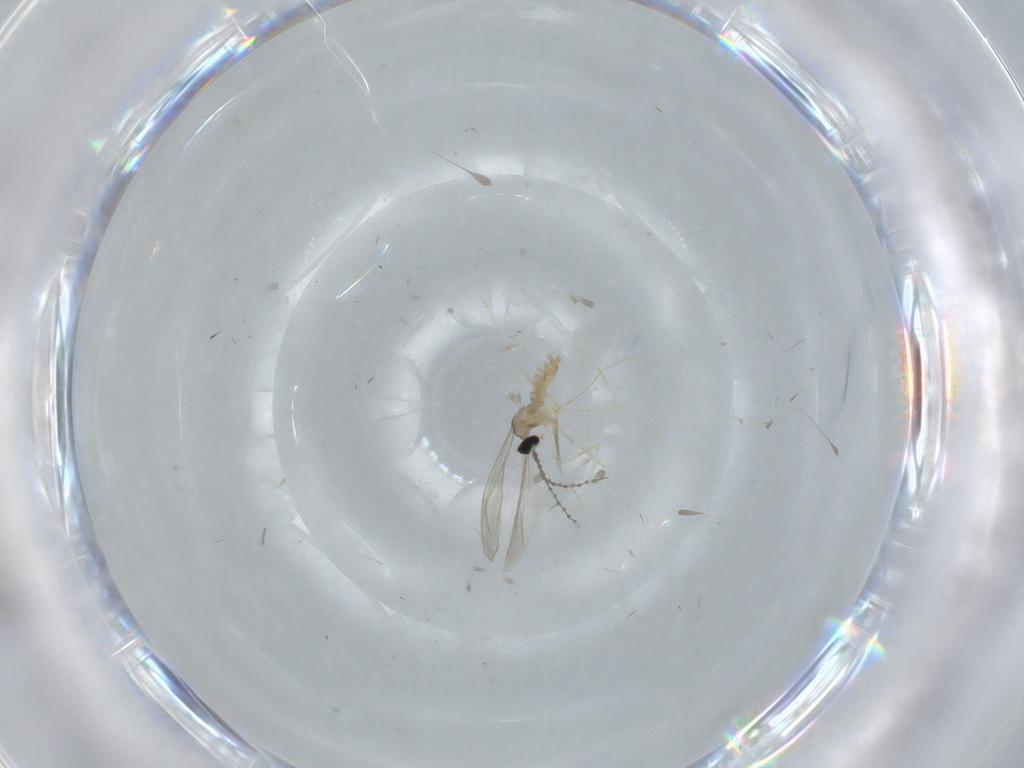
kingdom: Animalia
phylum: Arthropoda
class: Insecta
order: Diptera
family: Cecidomyiidae
